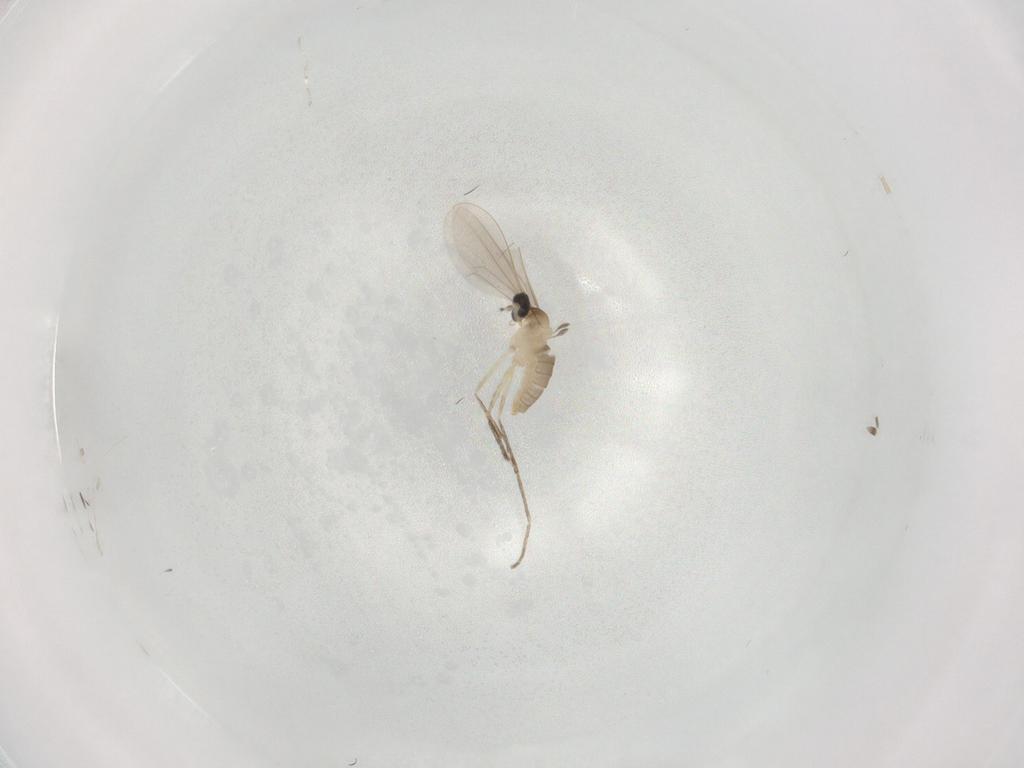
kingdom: Animalia
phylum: Arthropoda
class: Insecta
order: Diptera
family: Cecidomyiidae
